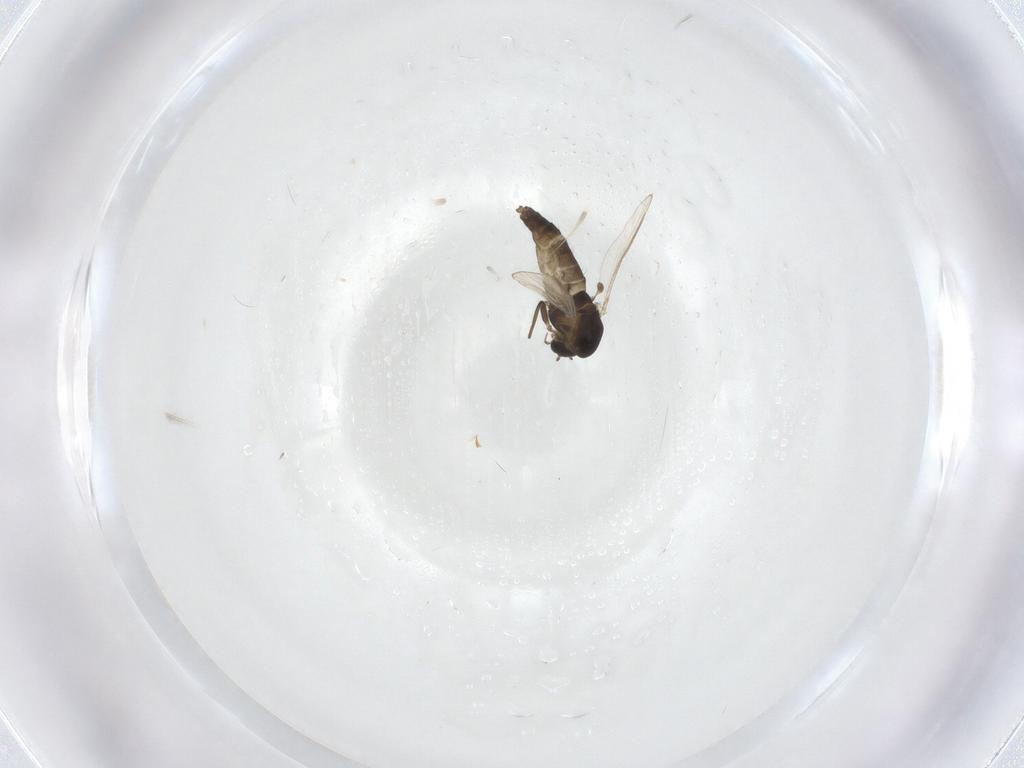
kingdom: Animalia
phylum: Arthropoda
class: Insecta
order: Diptera
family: Chironomidae
